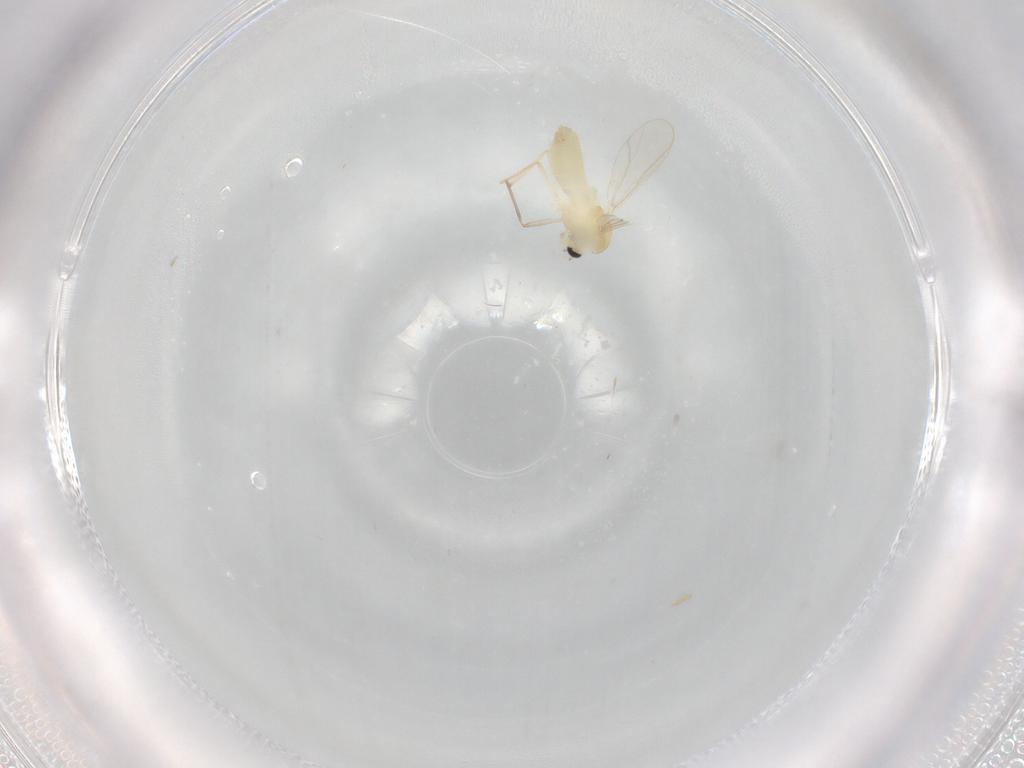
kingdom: Animalia
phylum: Arthropoda
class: Insecta
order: Diptera
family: Chironomidae
